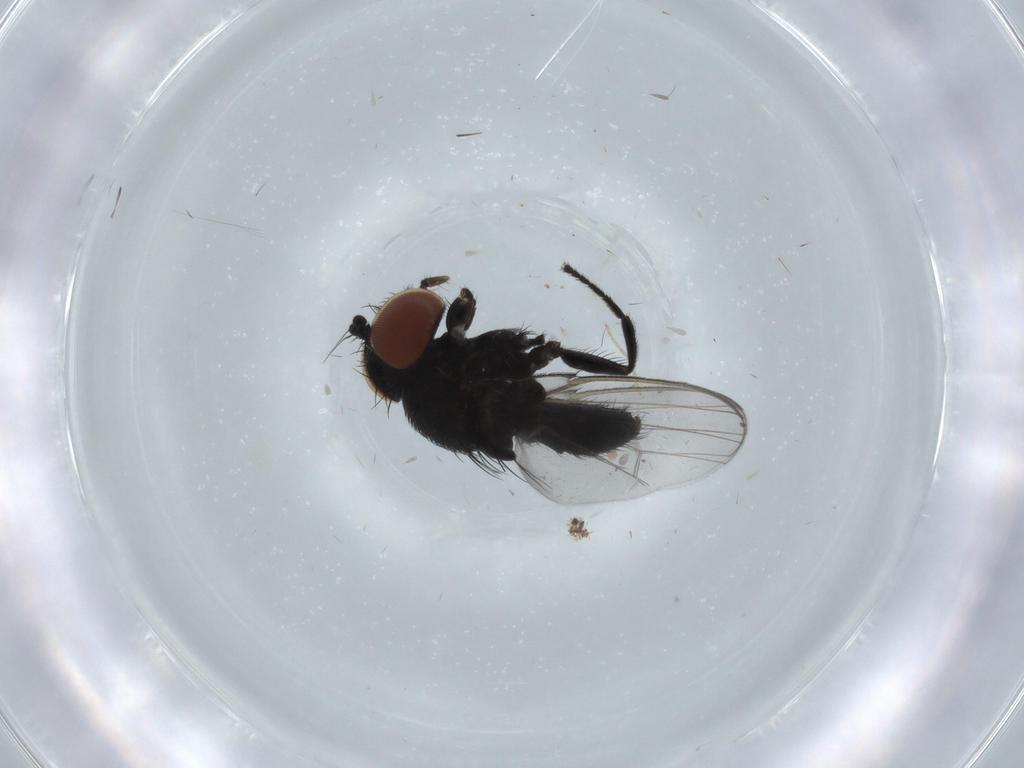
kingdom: Animalia
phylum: Arthropoda
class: Insecta
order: Diptera
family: Milichiidae
